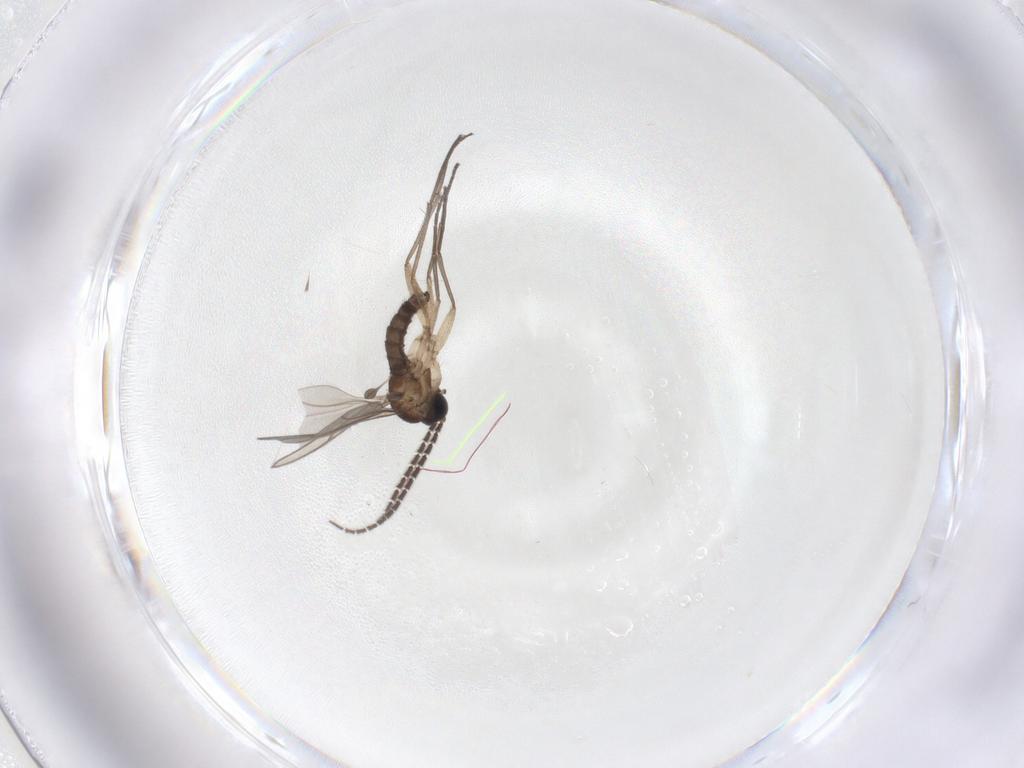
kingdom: Animalia
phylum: Arthropoda
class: Insecta
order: Diptera
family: Sciaridae
